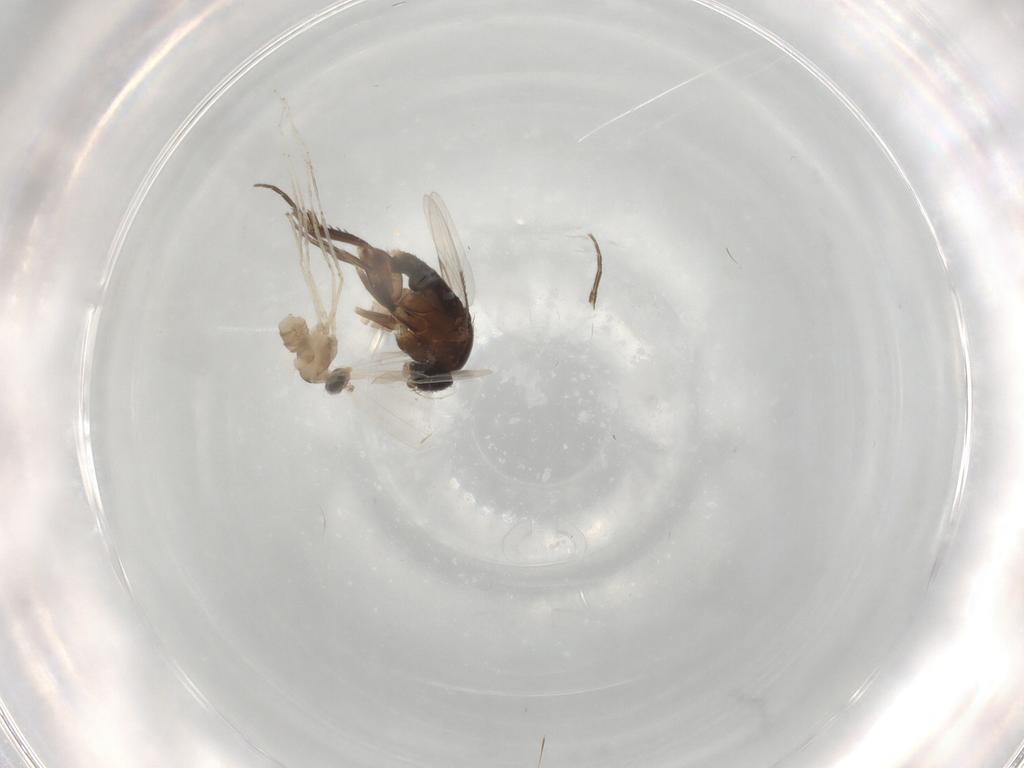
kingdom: Animalia
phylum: Arthropoda
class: Insecta
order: Diptera
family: Cecidomyiidae
